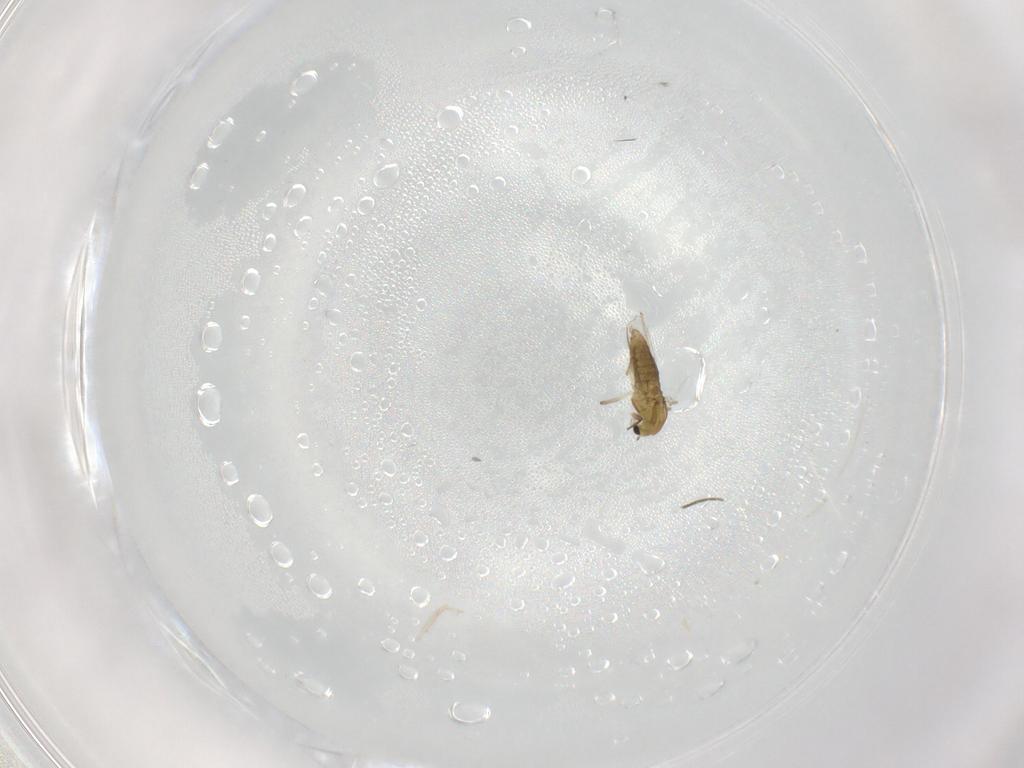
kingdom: Animalia
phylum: Arthropoda
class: Insecta
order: Diptera
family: Chironomidae
